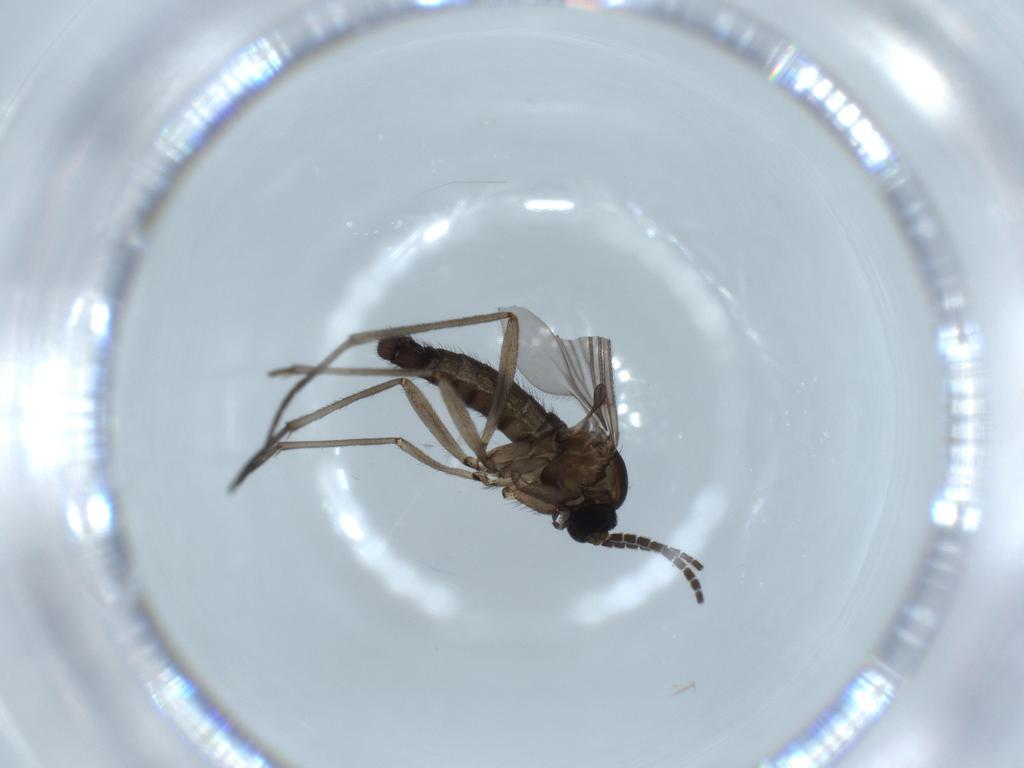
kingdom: Animalia
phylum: Arthropoda
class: Insecta
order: Diptera
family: Sciaridae
